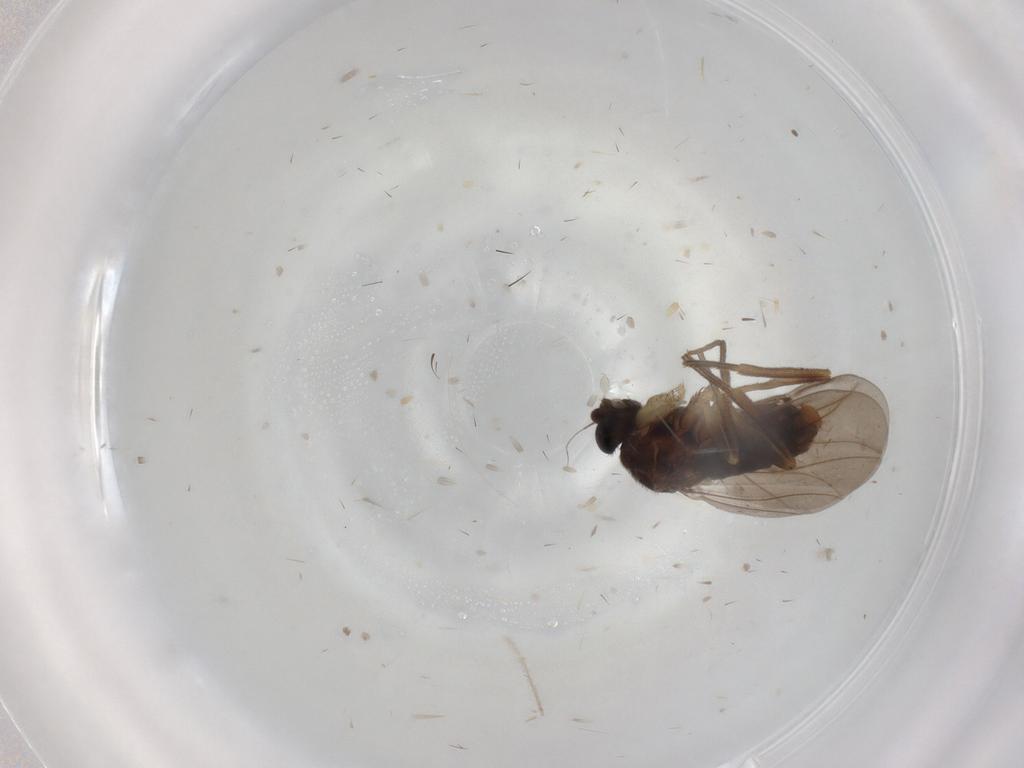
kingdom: Animalia
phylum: Arthropoda
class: Insecta
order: Diptera
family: Phoridae
